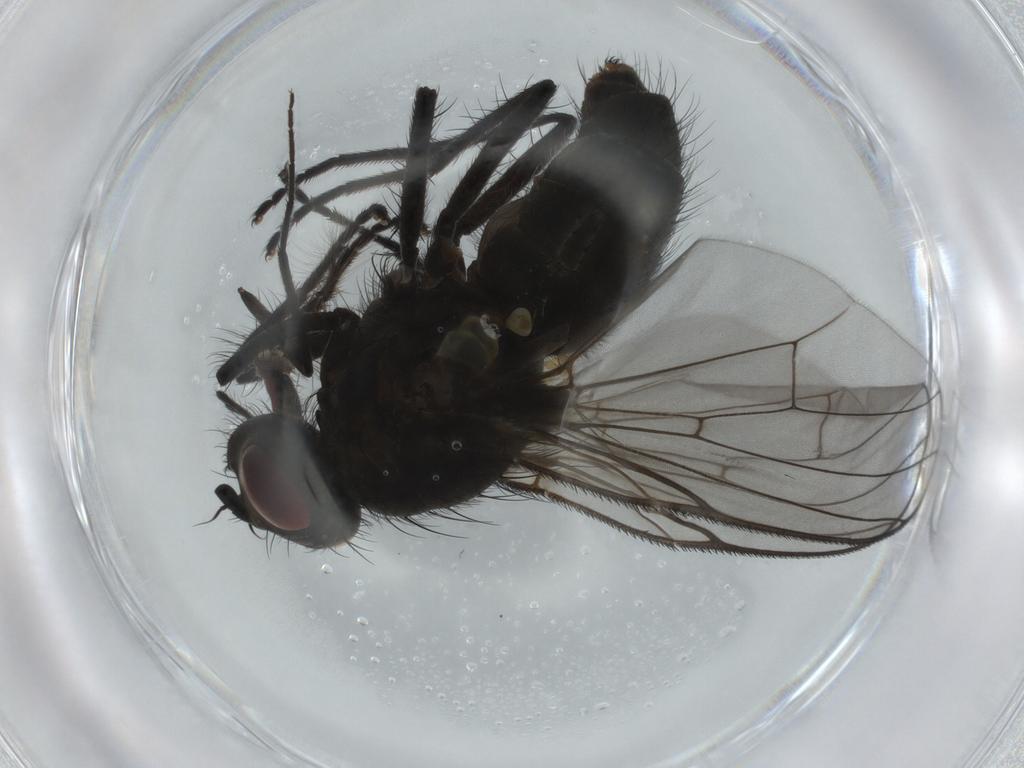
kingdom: Animalia
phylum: Arthropoda
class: Insecta
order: Diptera
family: Muscidae
